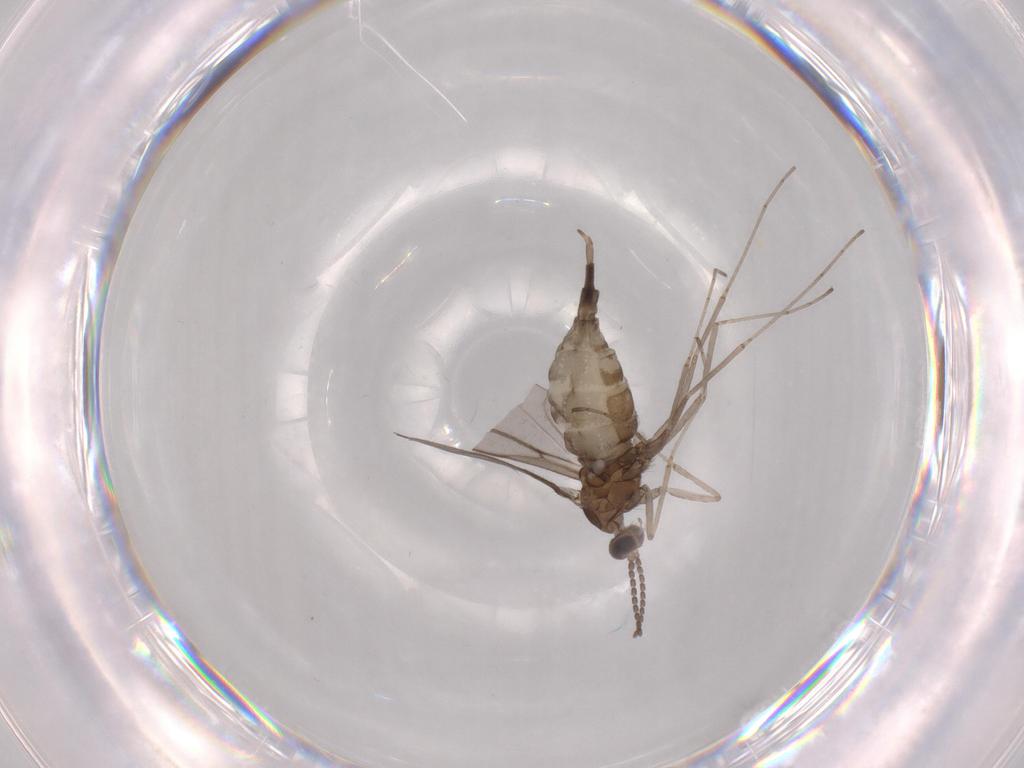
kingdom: Animalia
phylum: Arthropoda
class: Insecta
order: Diptera
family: Cecidomyiidae
